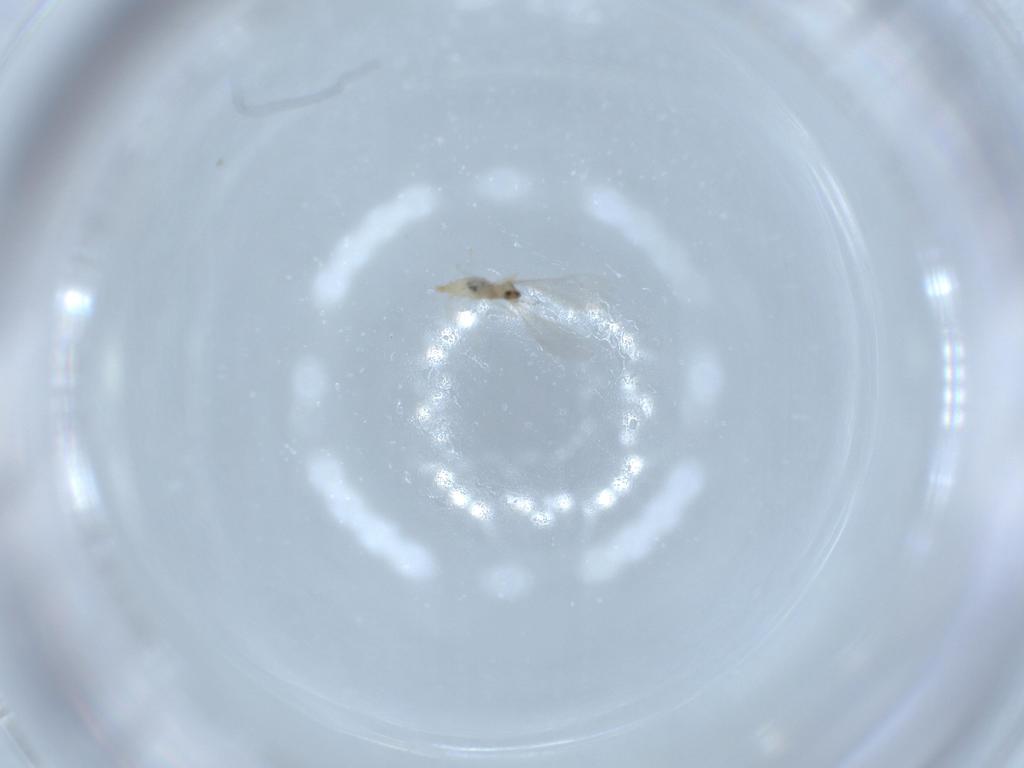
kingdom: Animalia
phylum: Arthropoda
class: Insecta
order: Diptera
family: Cecidomyiidae
